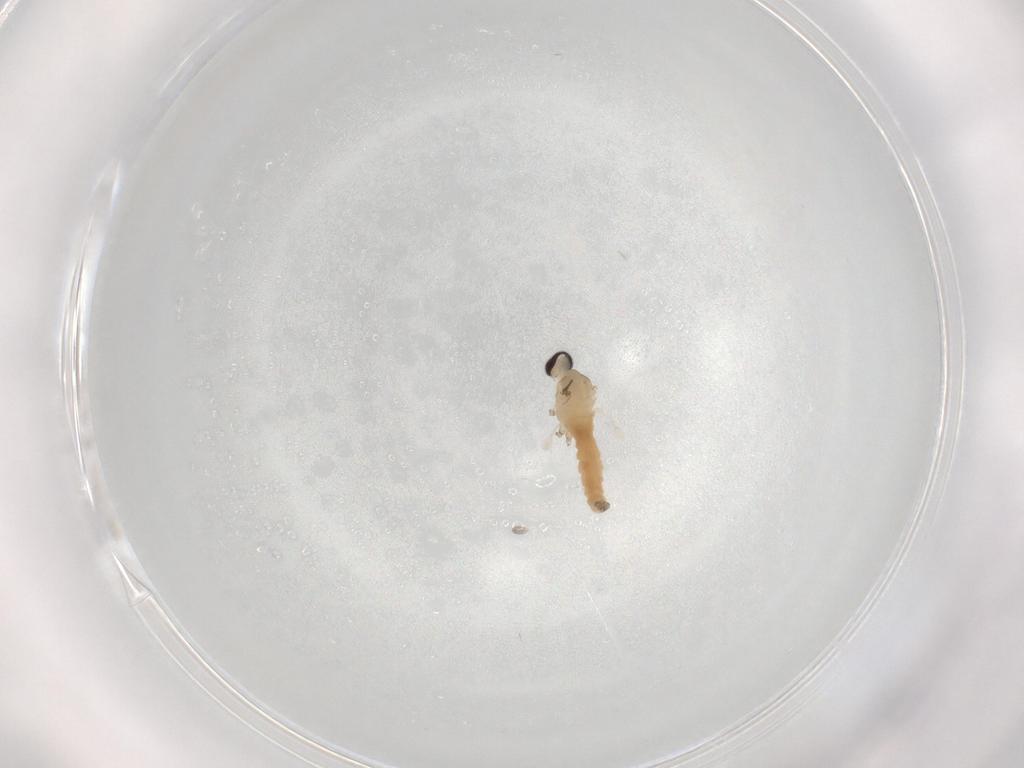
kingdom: Animalia
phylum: Arthropoda
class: Insecta
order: Diptera
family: Cecidomyiidae
